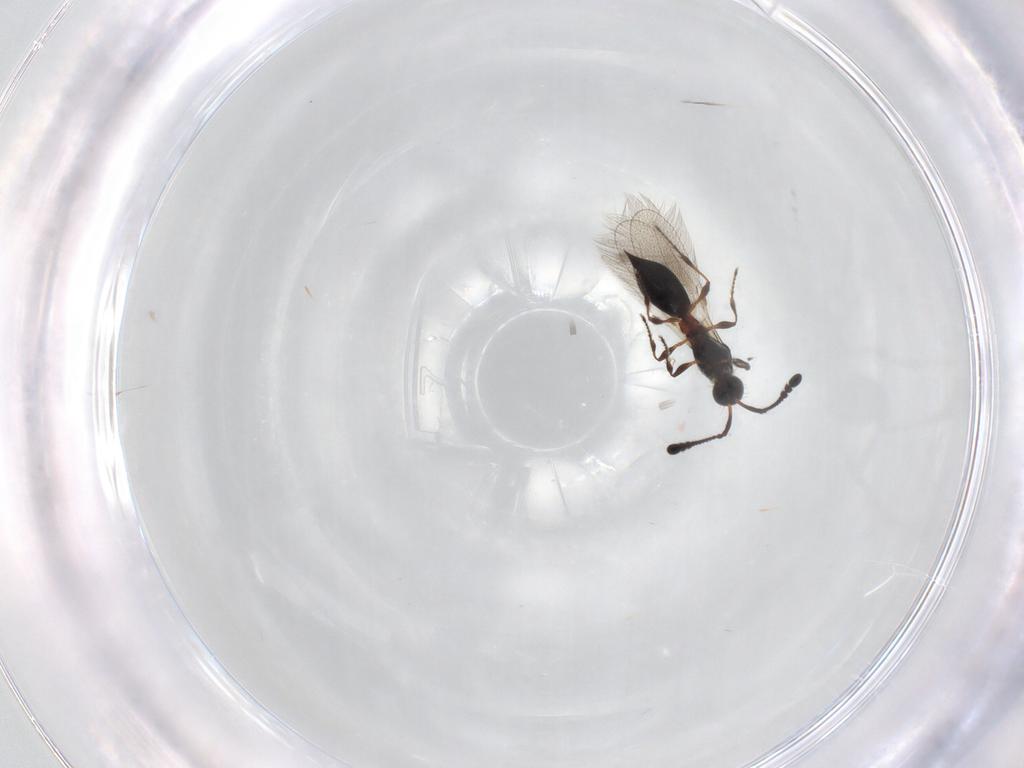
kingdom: Animalia
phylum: Arthropoda
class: Insecta
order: Hymenoptera
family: Diapriidae
